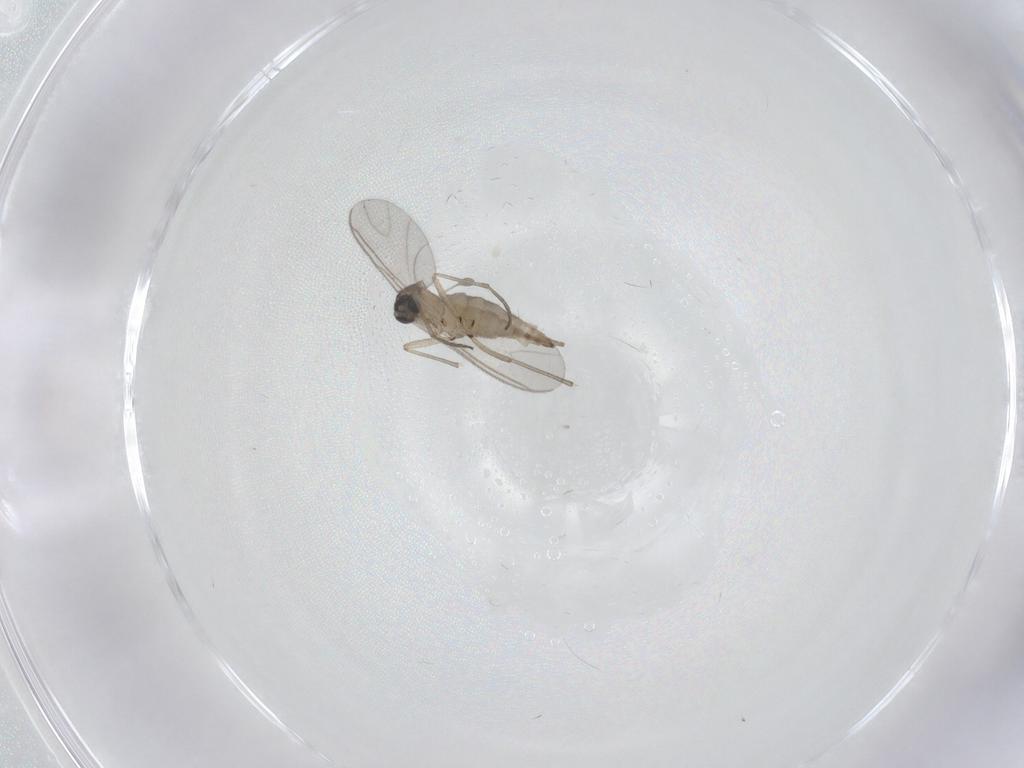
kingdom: Animalia
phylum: Arthropoda
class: Insecta
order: Diptera
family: Sciaridae
